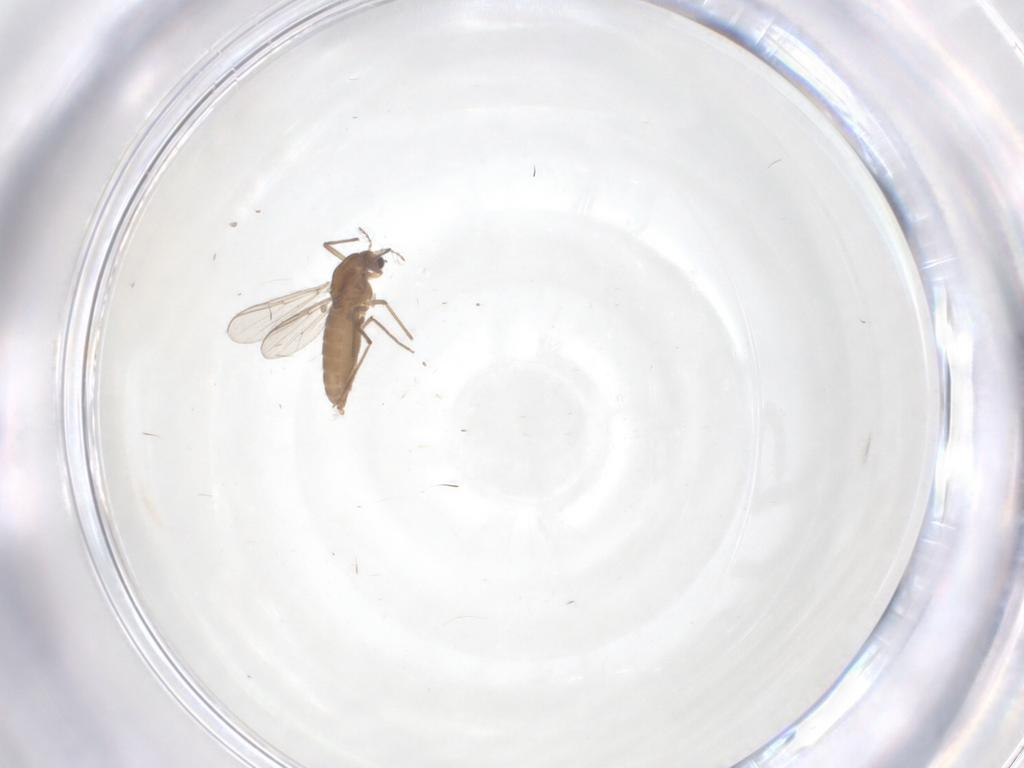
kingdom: Animalia
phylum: Arthropoda
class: Insecta
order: Diptera
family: Chironomidae
